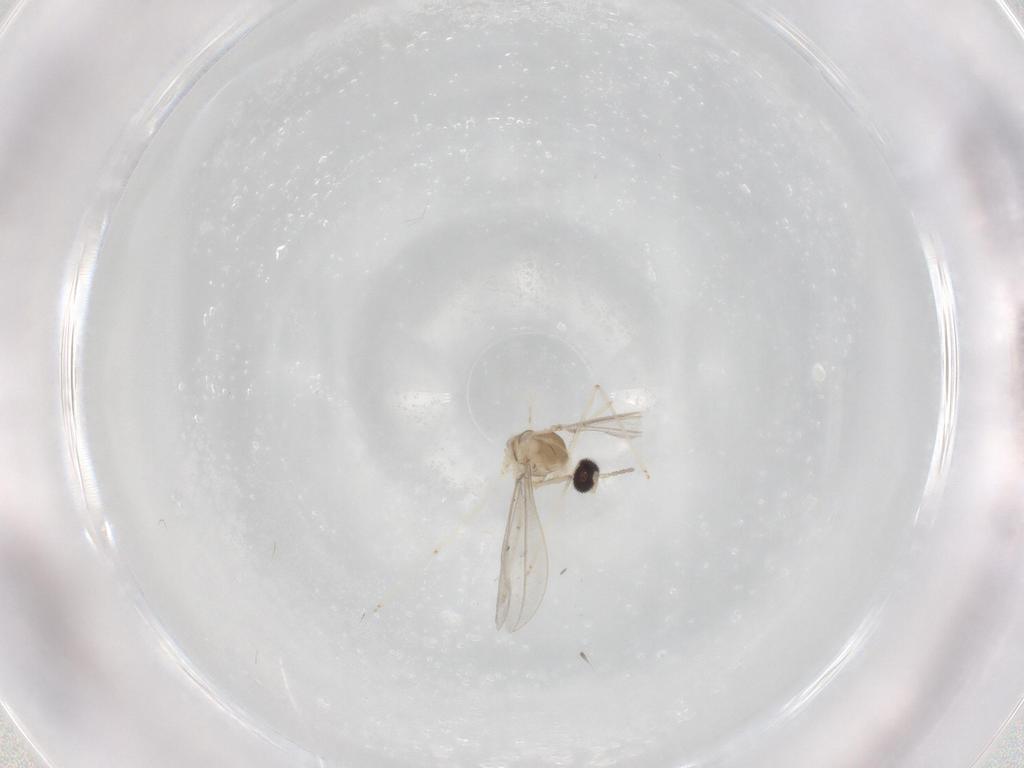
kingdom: Animalia
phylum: Arthropoda
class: Insecta
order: Diptera
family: Cecidomyiidae
